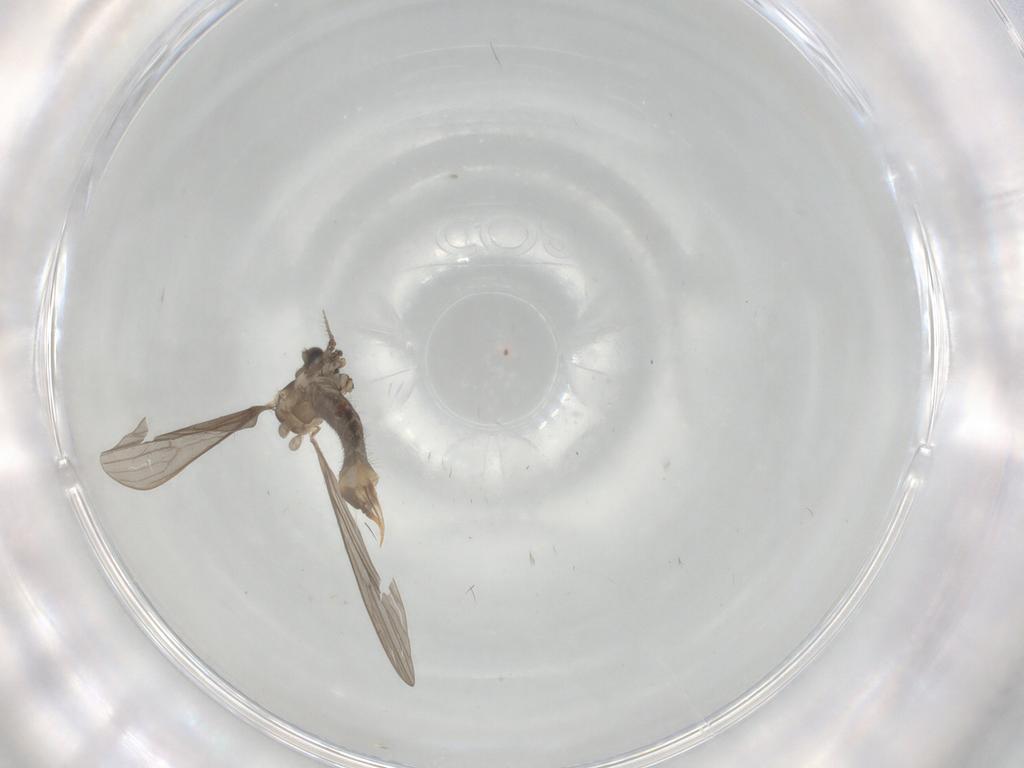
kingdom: Animalia
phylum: Arthropoda
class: Insecta
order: Diptera
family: Limoniidae
